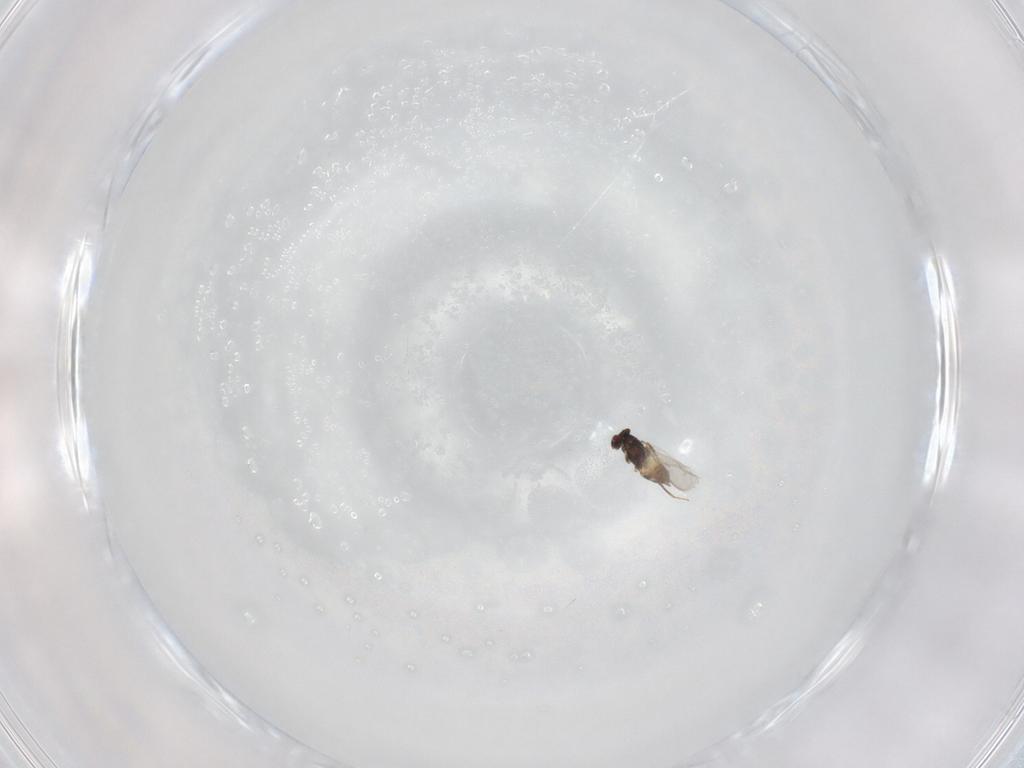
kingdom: Animalia
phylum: Arthropoda
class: Insecta
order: Hymenoptera
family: Mymaridae
